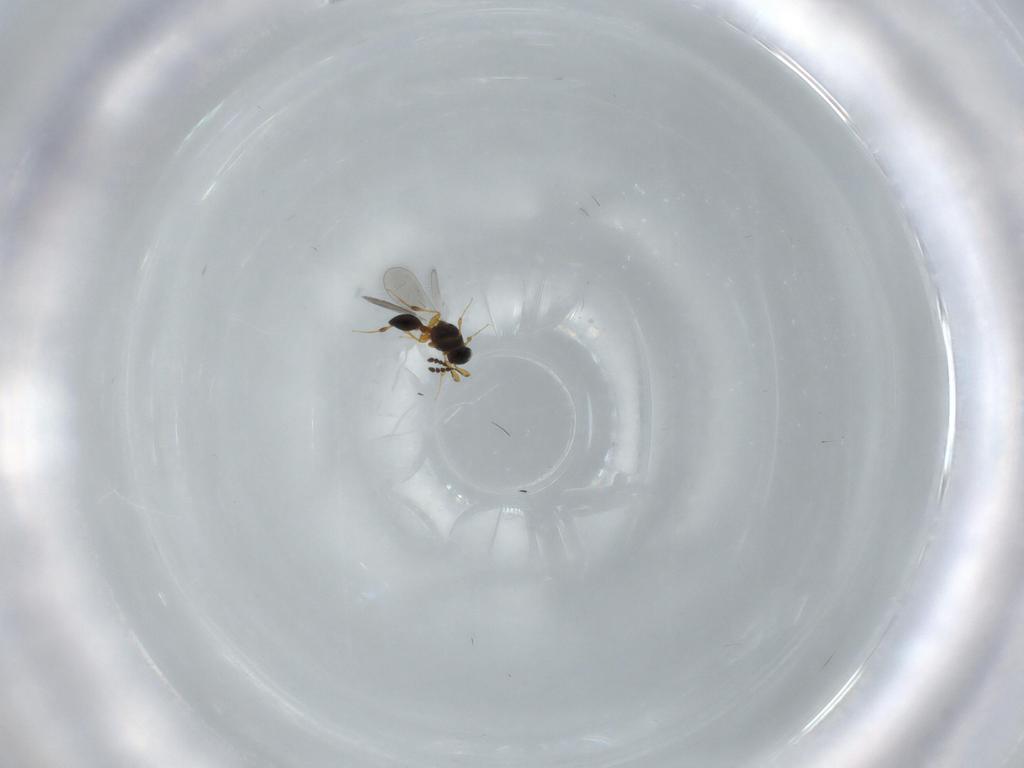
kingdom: Animalia
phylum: Arthropoda
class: Insecta
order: Hymenoptera
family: Platygastridae
